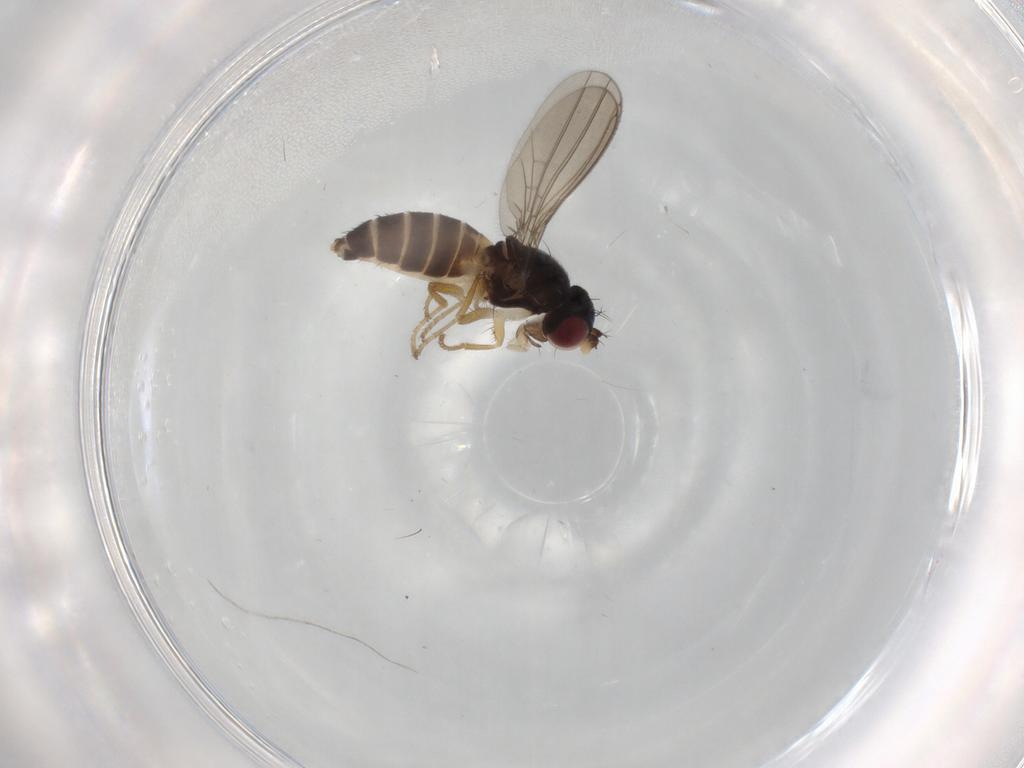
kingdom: Animalia
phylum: Arthropoda
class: Insecta
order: Diptera
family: Anthomyzidae
